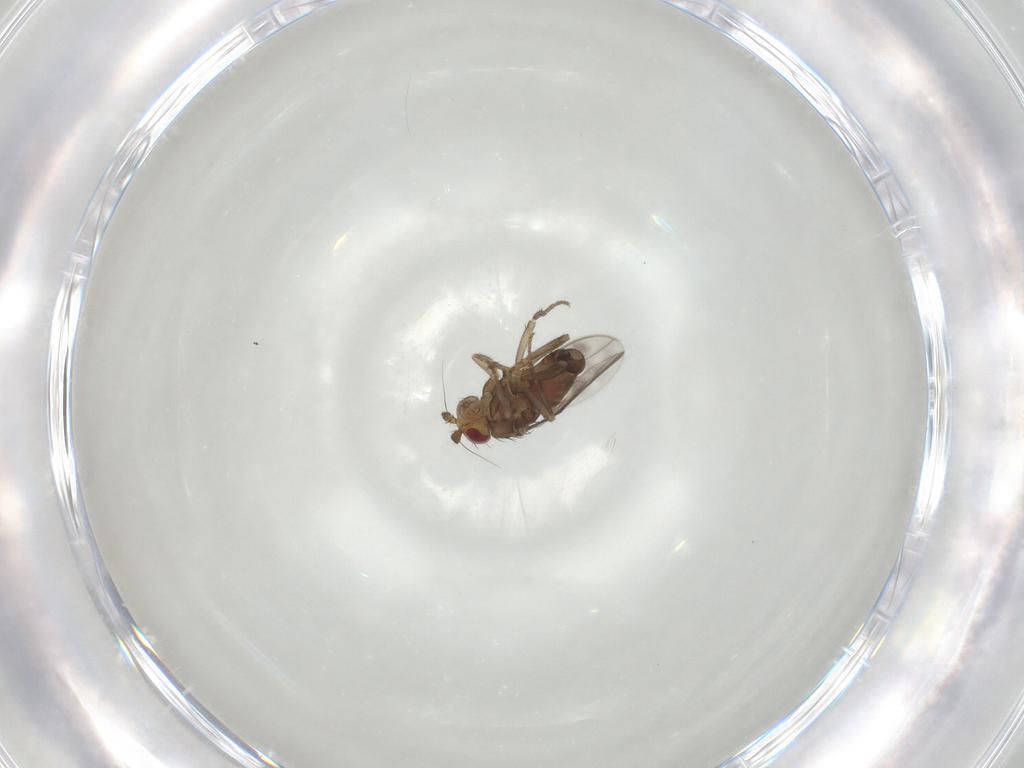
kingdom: Animalia
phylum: Arthropoda
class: Insecta
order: Diptera
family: Sphaeroceridae
